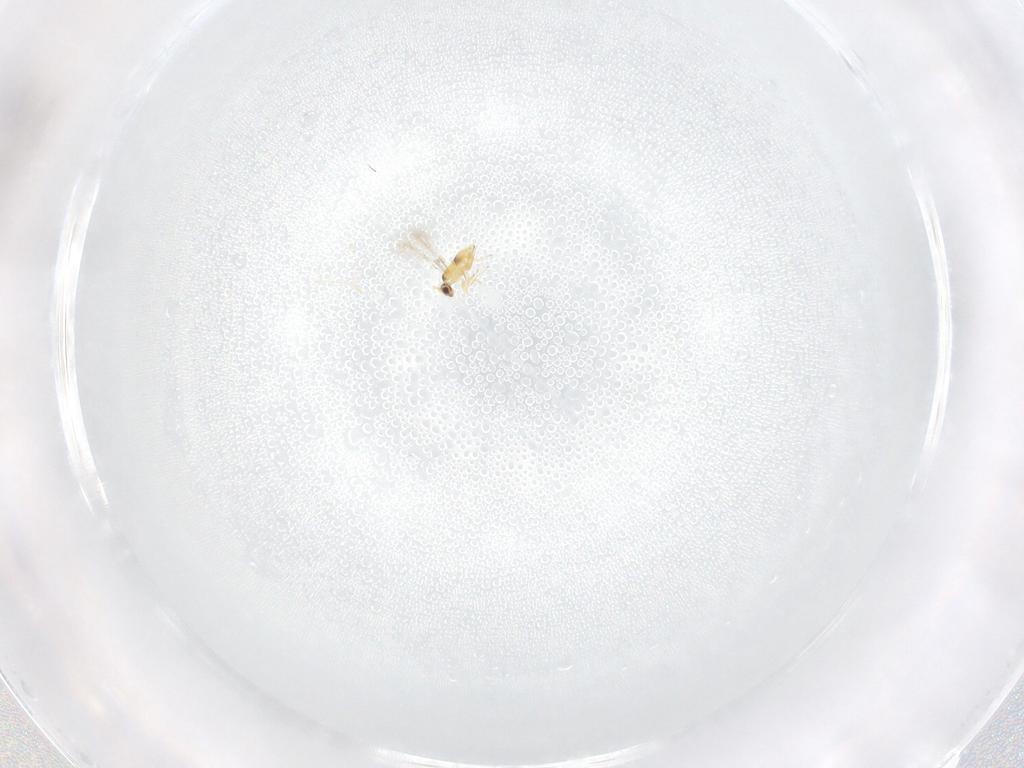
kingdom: Animalia
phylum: Arthropoda
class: Insecta
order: Hymenoptera
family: Mymaridae
